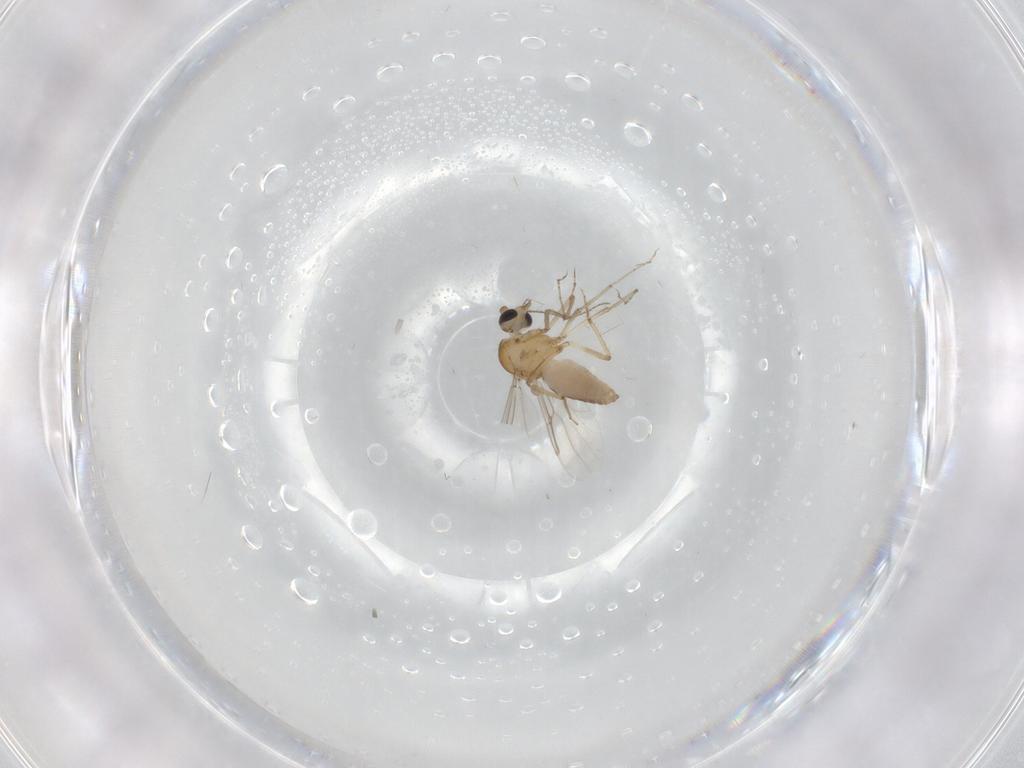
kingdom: Animalia
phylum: Arthropoda
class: Insecta
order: Diptera
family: Ceratopogonidae
